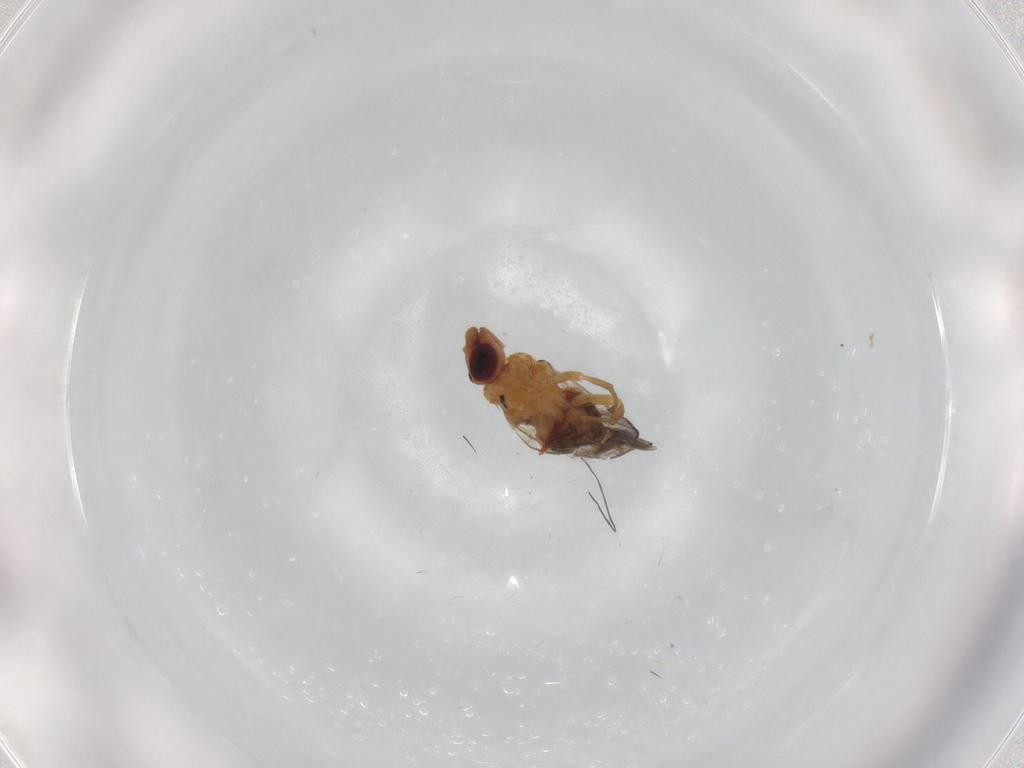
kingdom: Animalia
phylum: Arthropoda
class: Insecta
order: Diptera
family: Chloropidae
